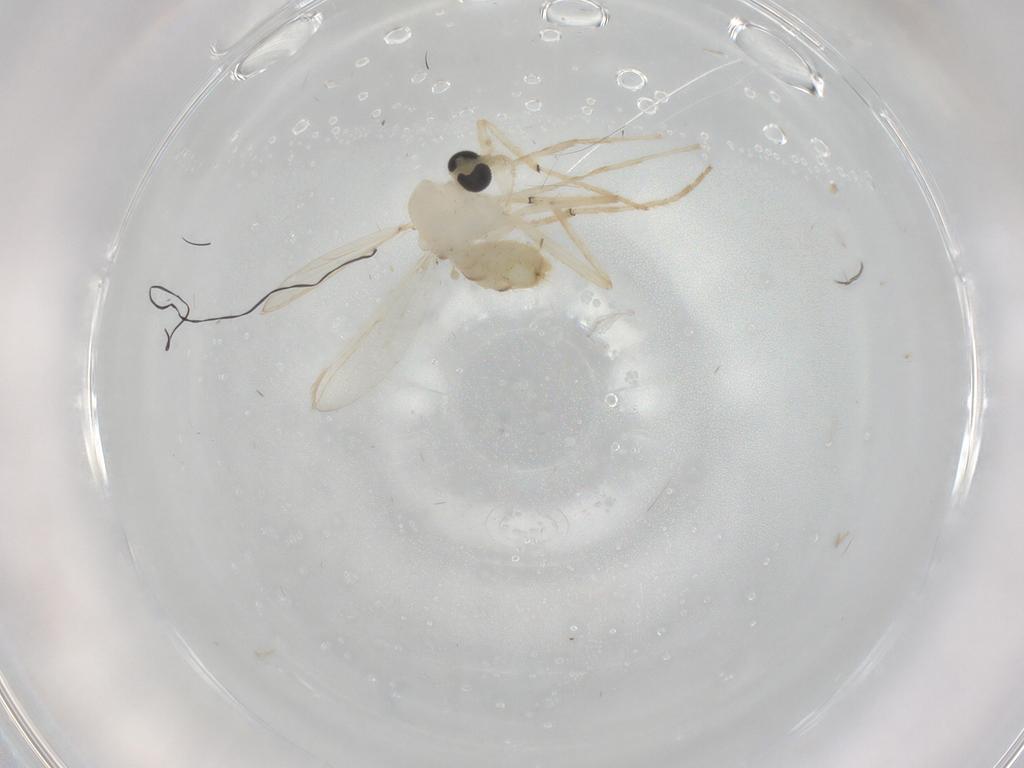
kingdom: Animalia
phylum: Arthropoda
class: Insecta
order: Diptera
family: Chironomidae
